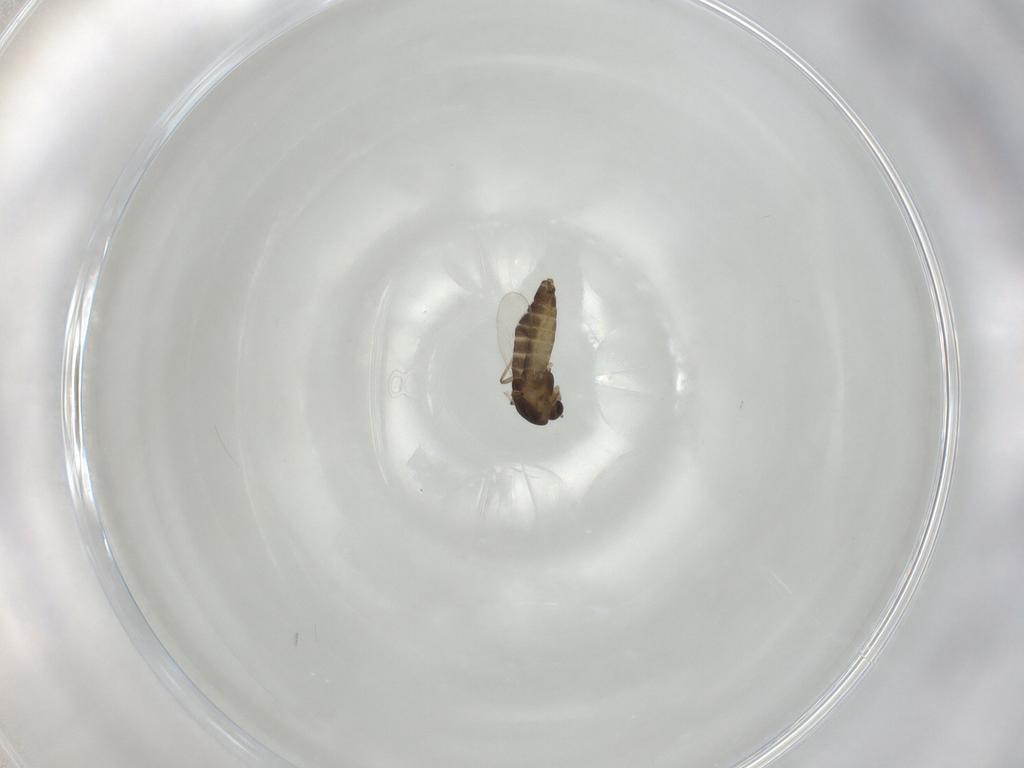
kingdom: Animalia
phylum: Arthropoda
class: Insecta
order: Diptera
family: Chironomidae
